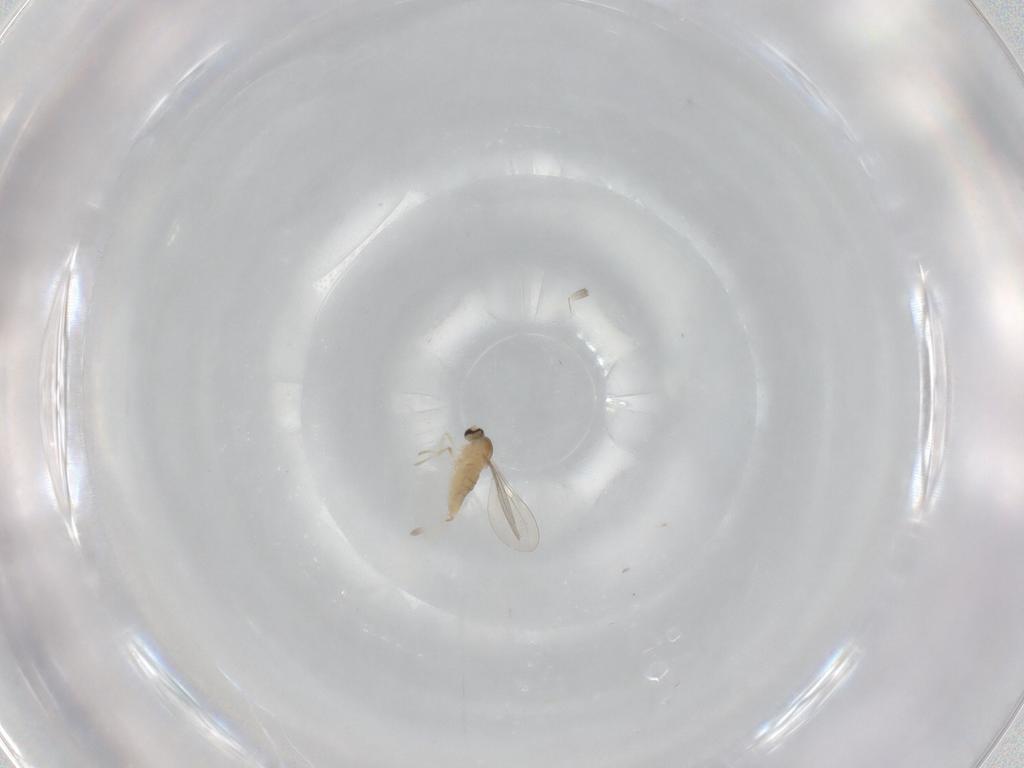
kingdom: Animalia
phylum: Arthropoda
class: Insecta
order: Diptera
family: Cecidomyiidae
